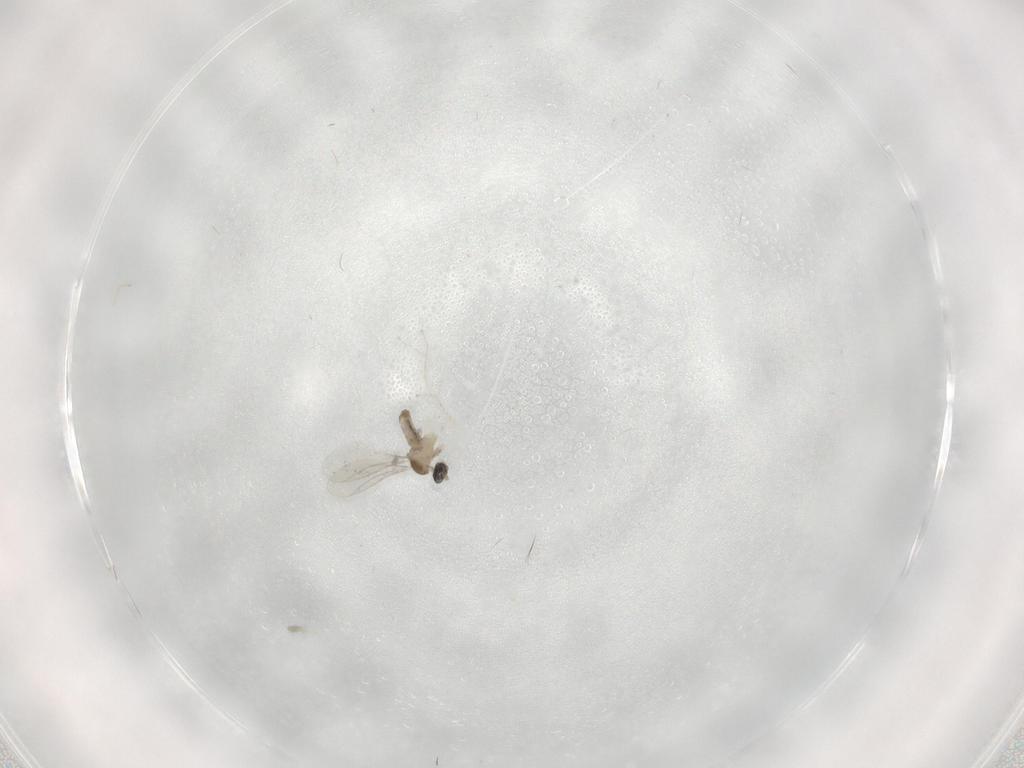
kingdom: Animalia
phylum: Arthropoda
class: Insecta
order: Diptera
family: Cecidomyiidae
